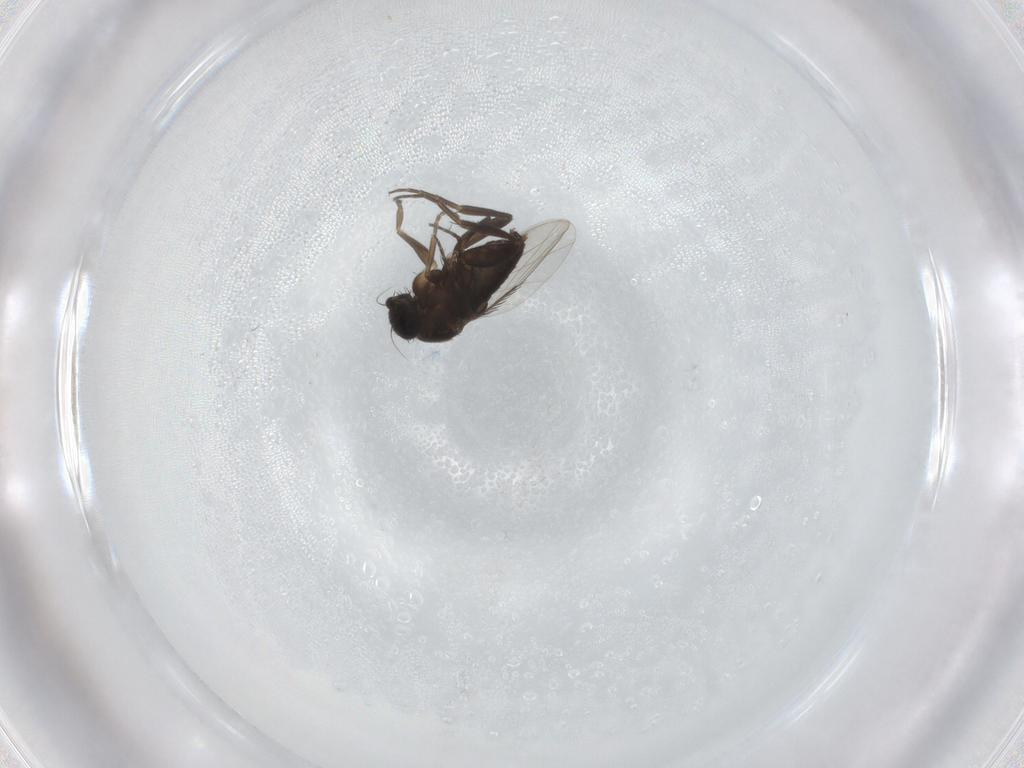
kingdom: Animalia
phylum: Arthropoda
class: Insecta
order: Diptera
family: Phoridae
